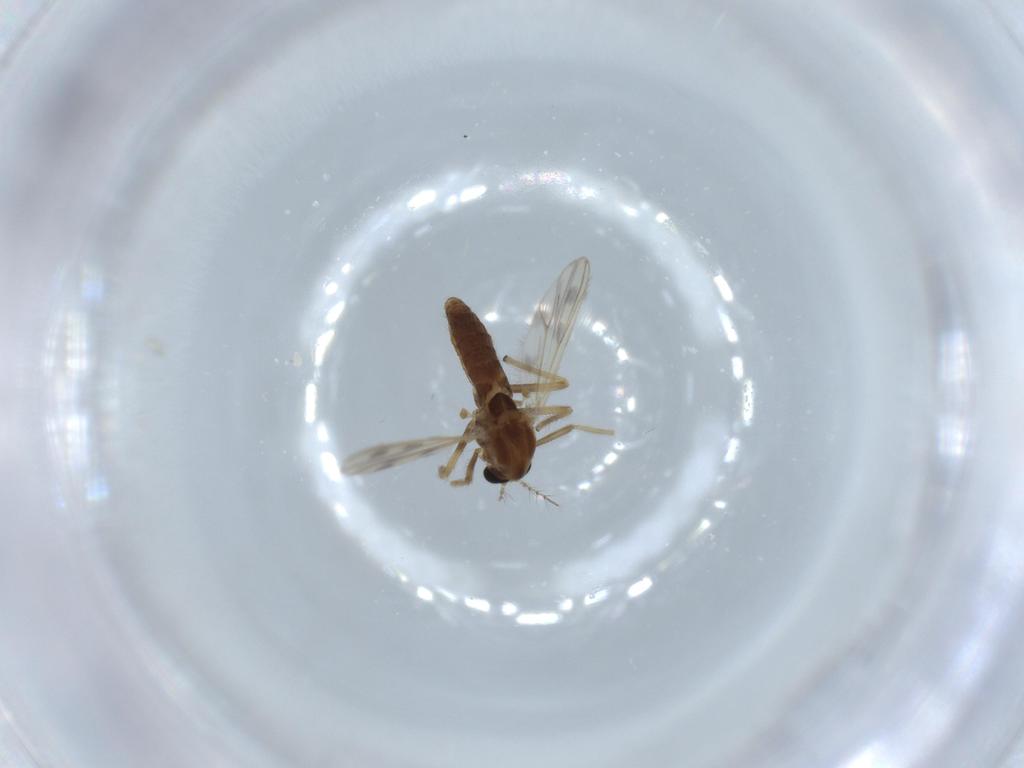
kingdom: Animalia
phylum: Arthropoda
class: Insecta
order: Diptera
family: Chironomidae
